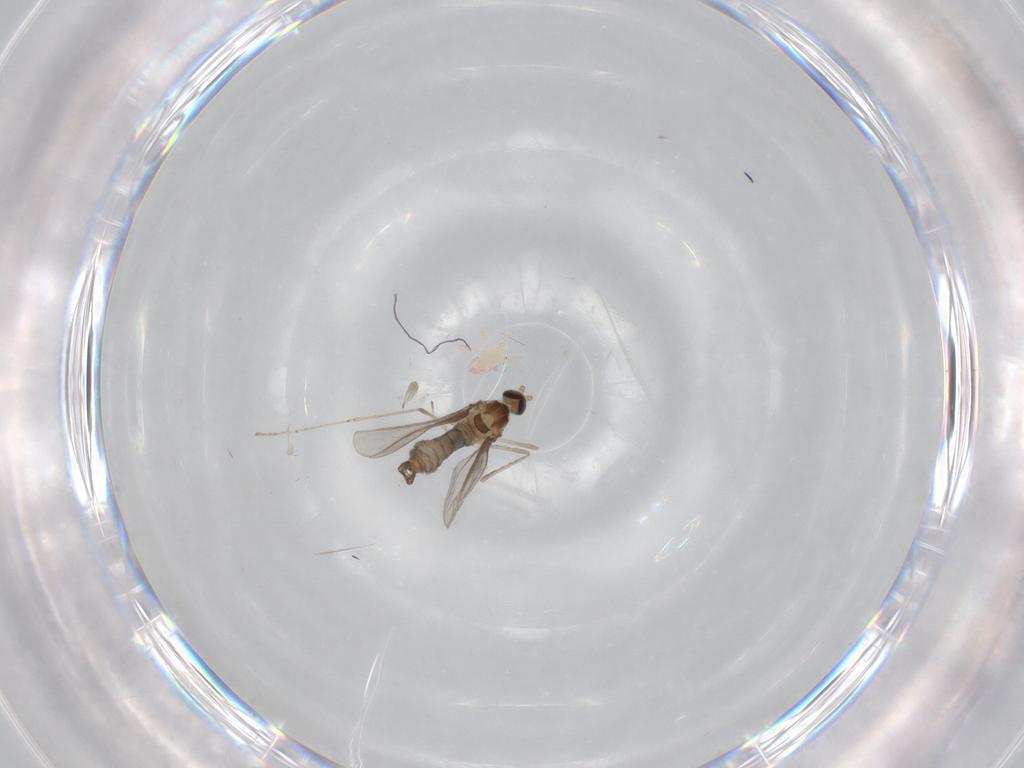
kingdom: Animalia
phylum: Arthropoda
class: Insecta
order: Diptera
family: Cecidomyiidae
